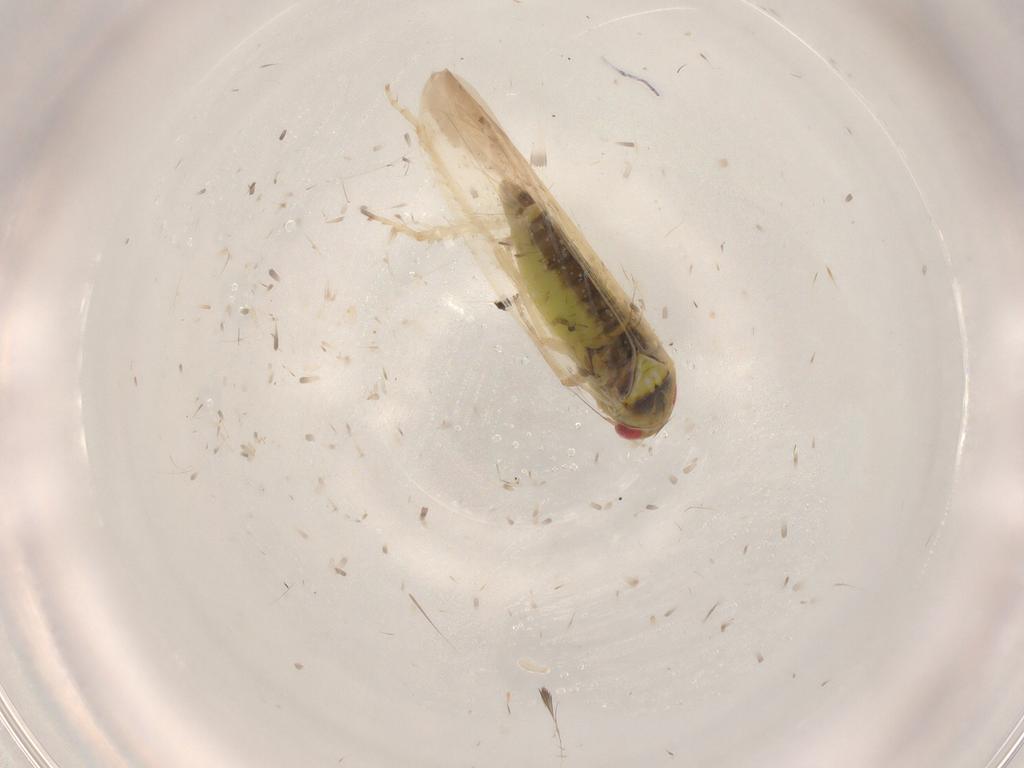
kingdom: Animalia
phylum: Arthropoda
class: Insecta
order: Hemiptera
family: Cicadellidae
